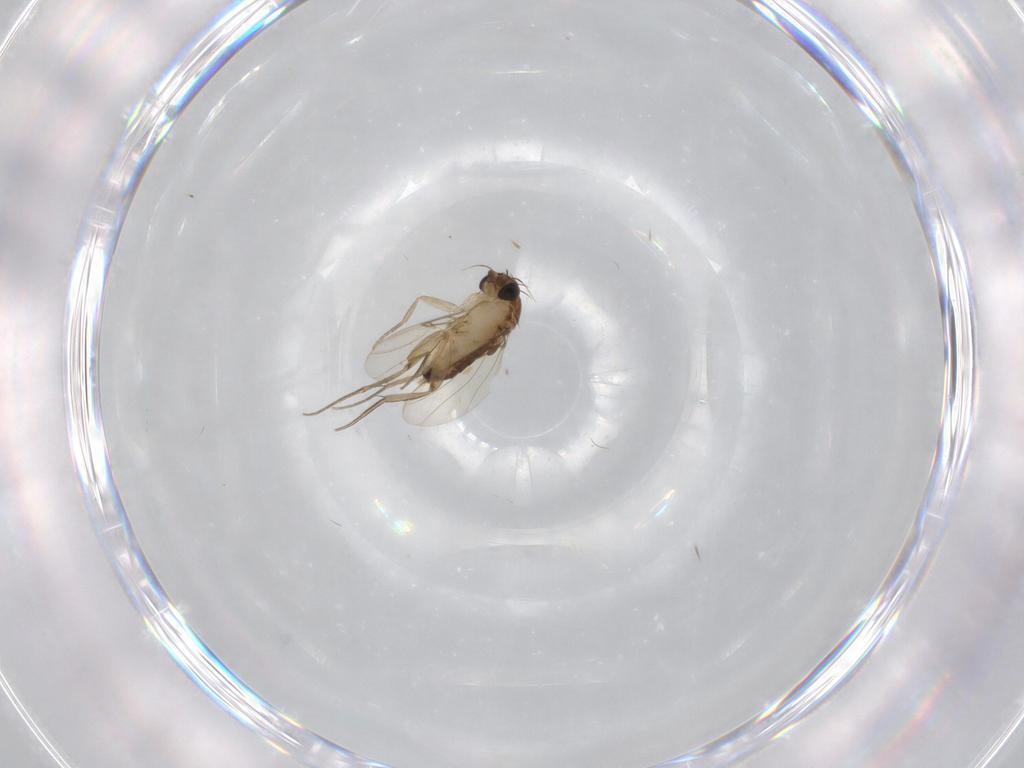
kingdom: Animalia
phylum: Arthropoda
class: Insecta
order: Diptera
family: Phoridae
